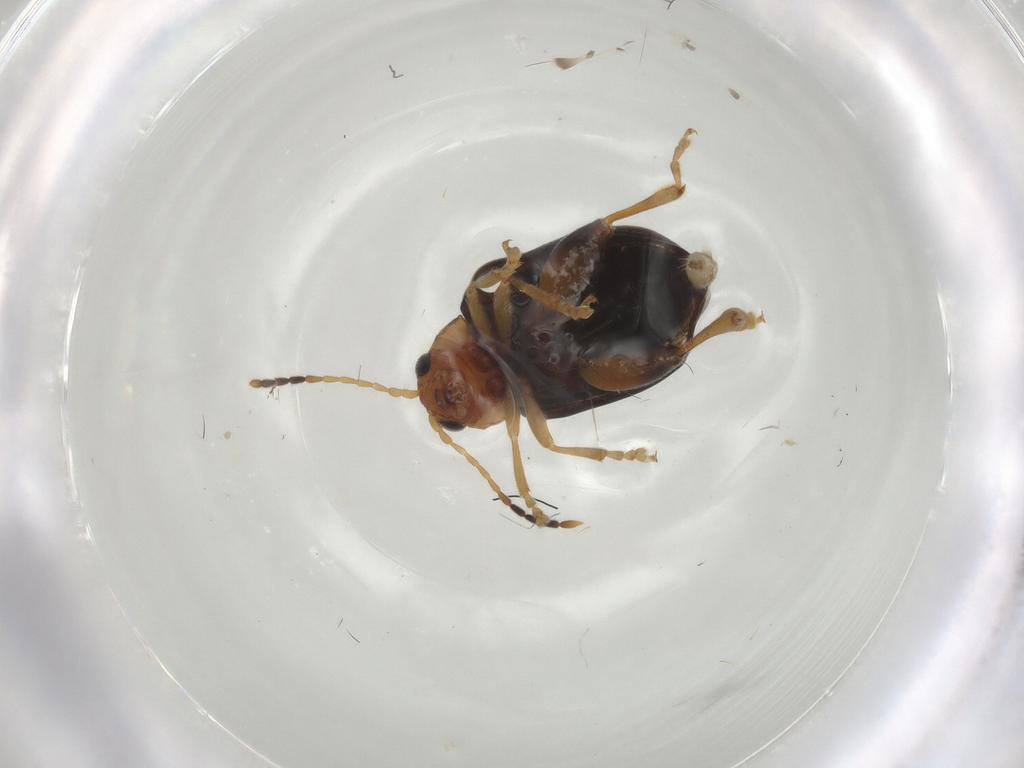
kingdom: Animalia
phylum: Arthropoda
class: Insecta
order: Coleoptera
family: Chrysomelidae
